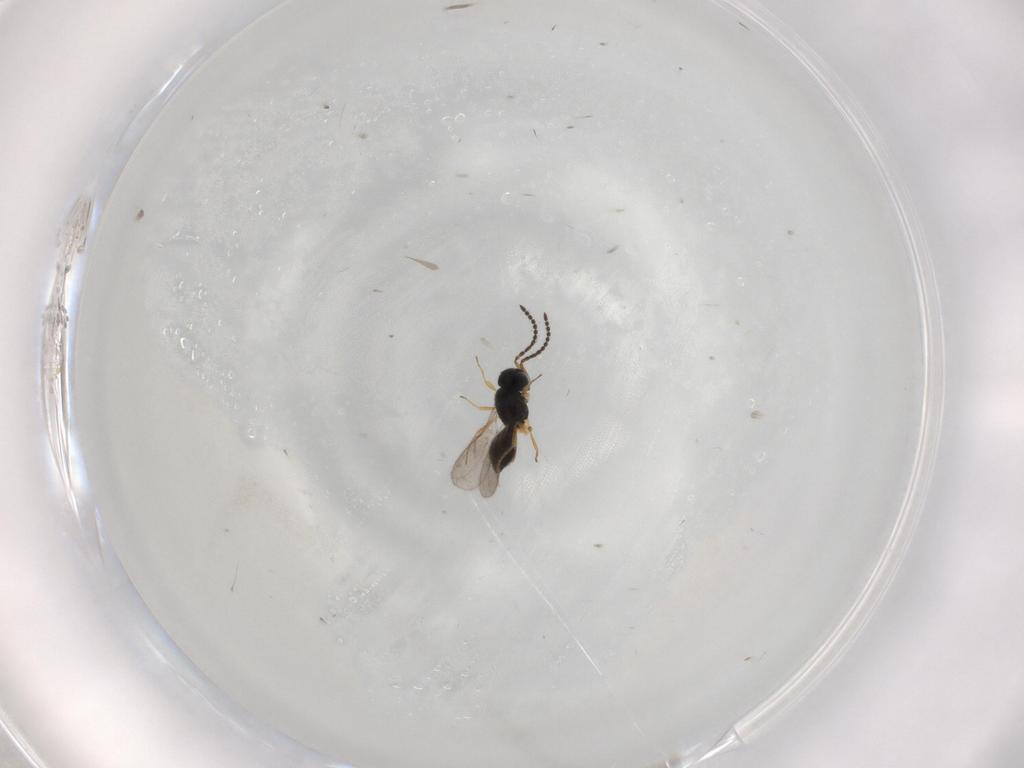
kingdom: Animalia
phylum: Arthropoda
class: Insecta
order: Hymenoptera
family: Scelionidae
